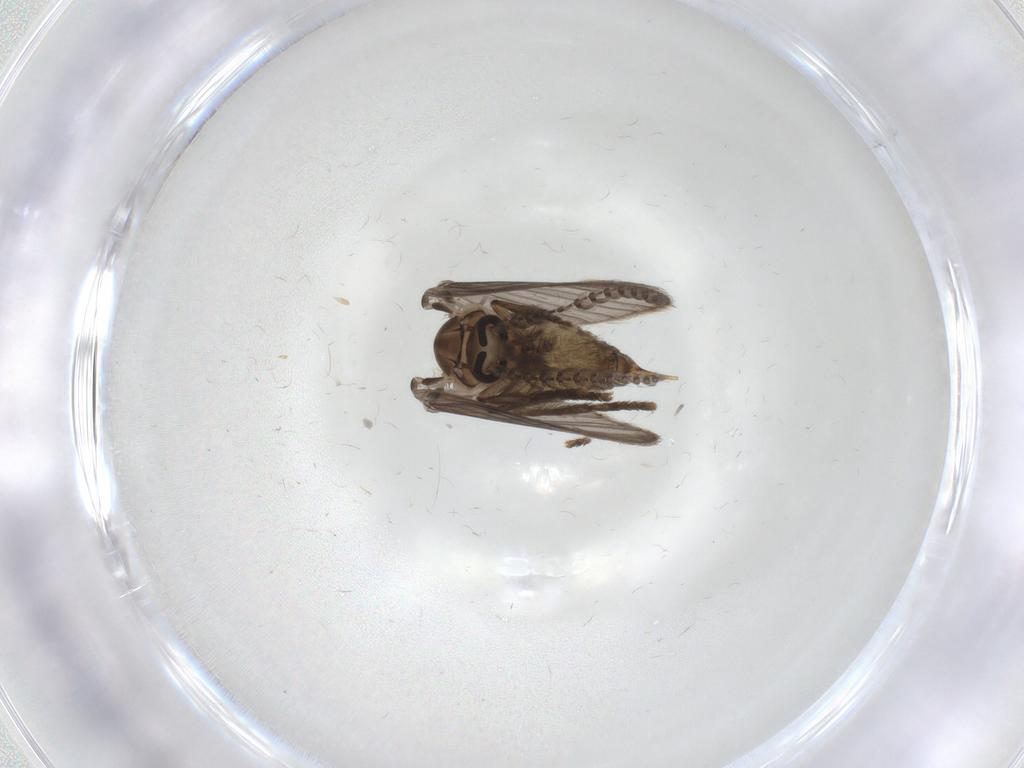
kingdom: Animalia
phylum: Arthropoda
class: Insecta
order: Diptera
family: Psychodidae
